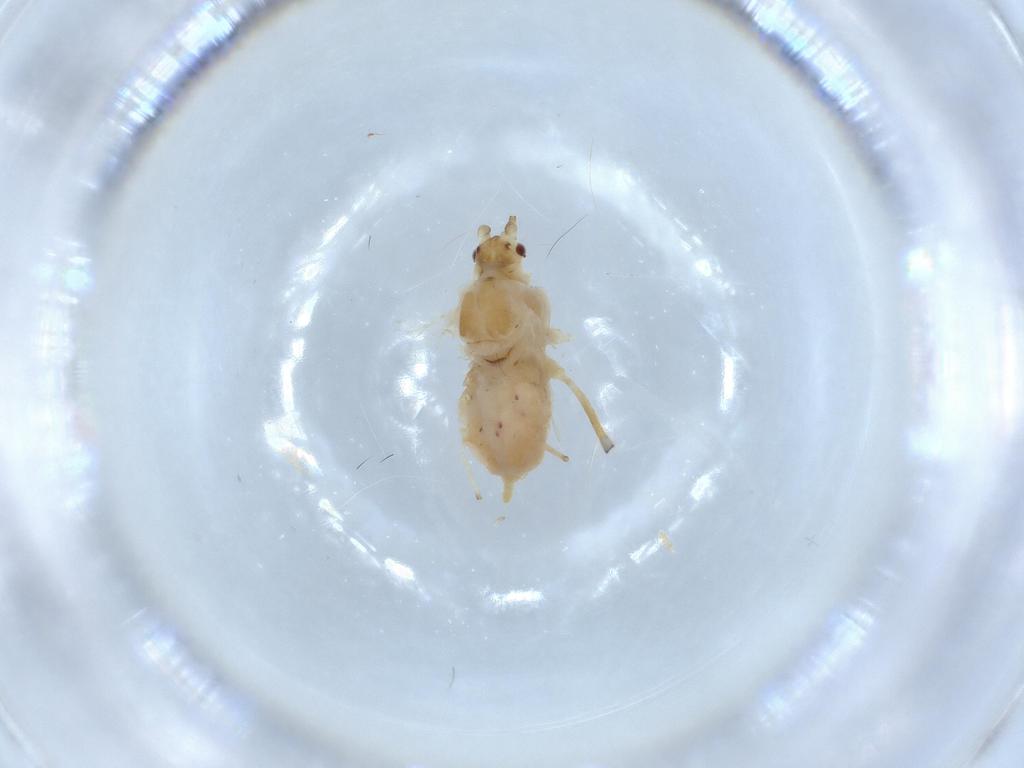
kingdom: Animalia
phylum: Arthropoda
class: Insecta
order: Hemiptera
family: Aphididae
